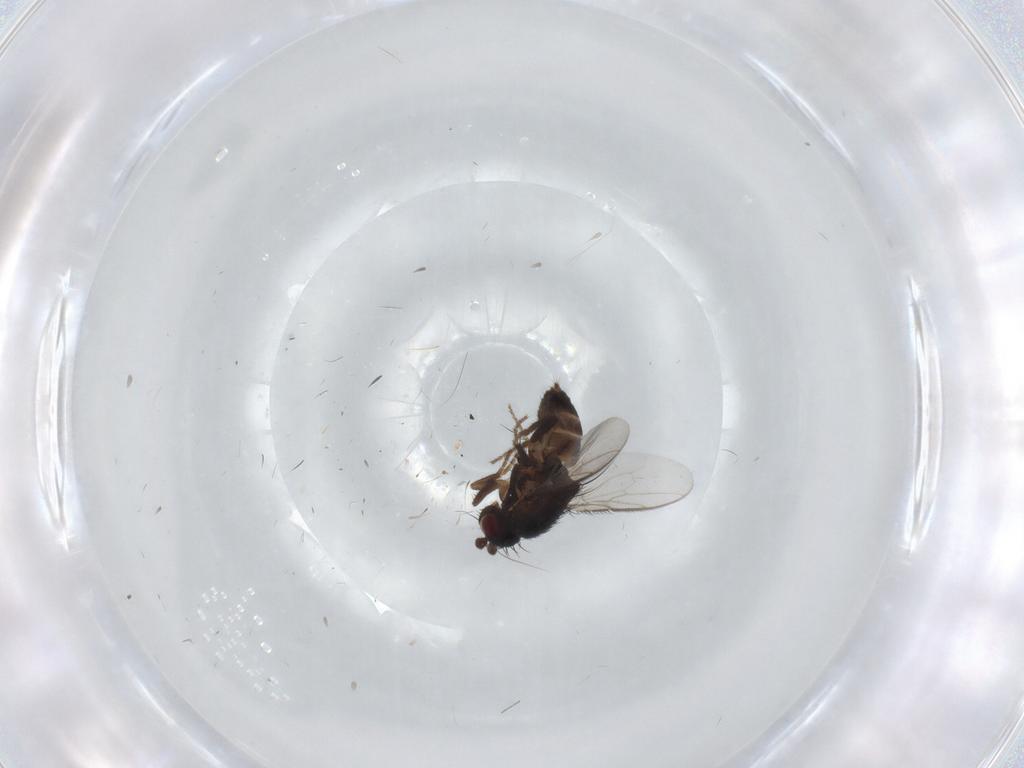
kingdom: Animalia
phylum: Arthropoda
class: Insecta
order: Diptera
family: Sphaeroceridae
